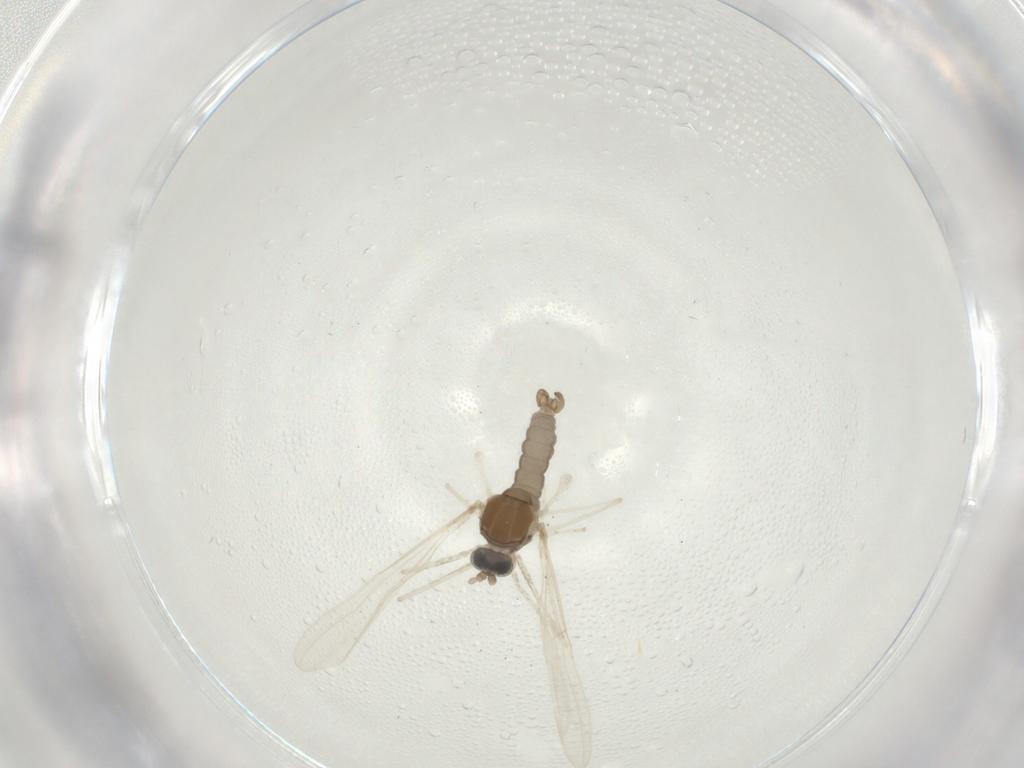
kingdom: Animalia
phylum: Arthropoda
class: Insecta
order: Diptera
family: Cecidomyiidae
